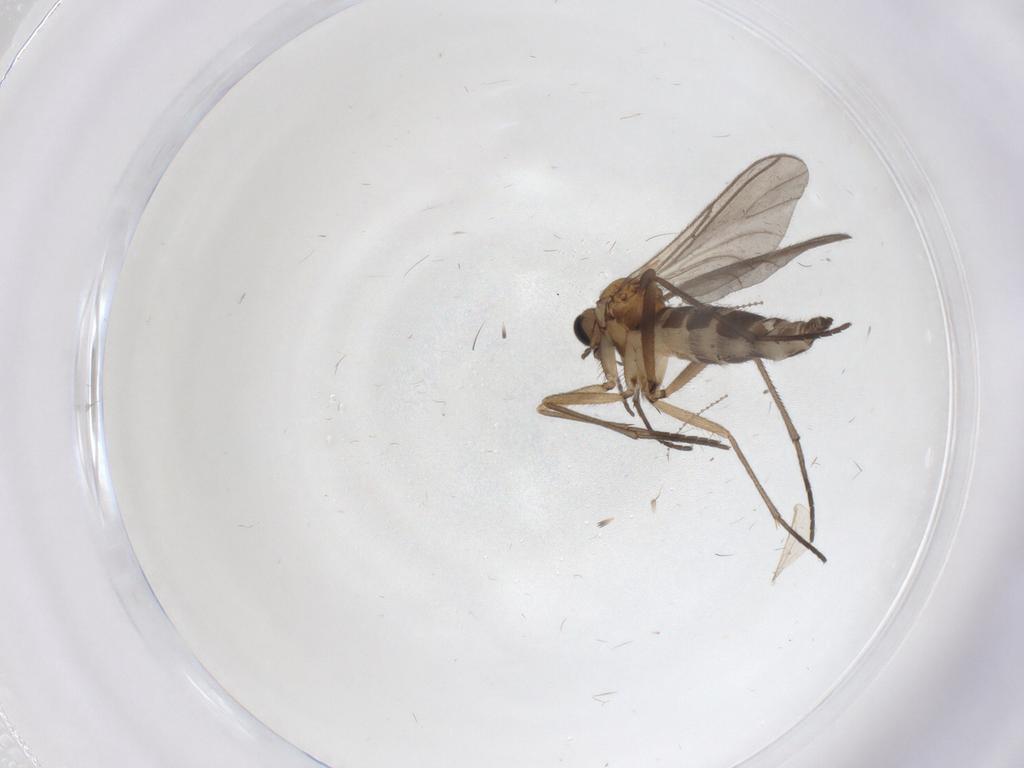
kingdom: Animalia
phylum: Arthropoda
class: Insecta
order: Diptera
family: Sciaridae
